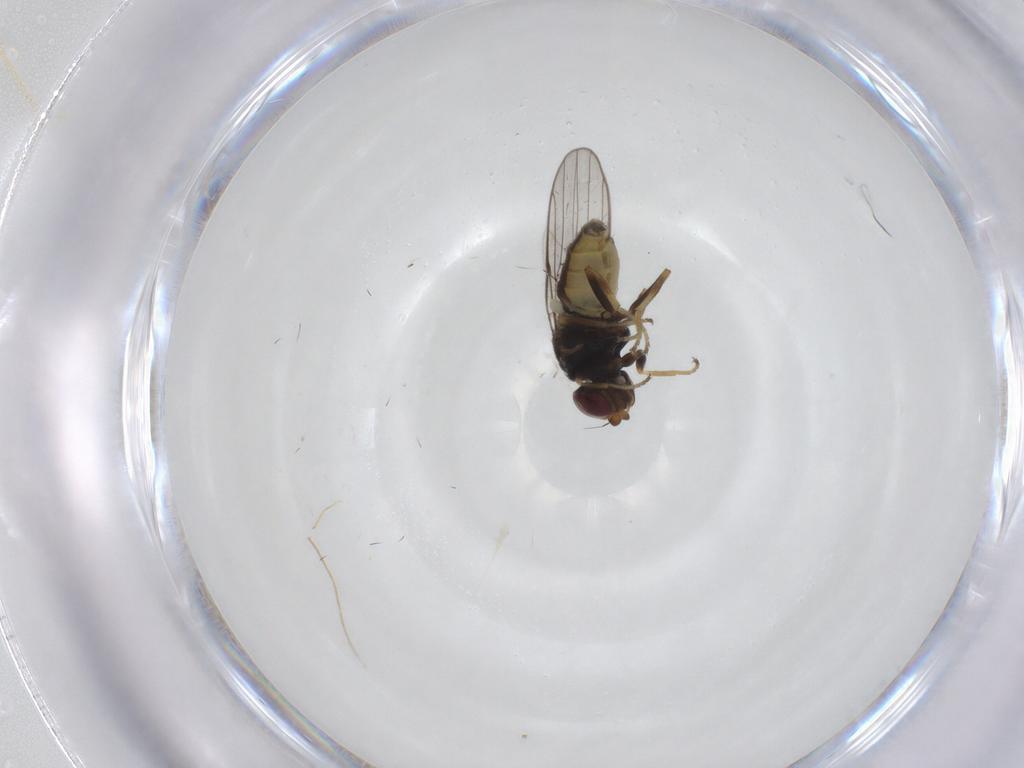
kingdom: Animalia
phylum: Arthropoda
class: Insecta
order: Diptera
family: Chloropidae
